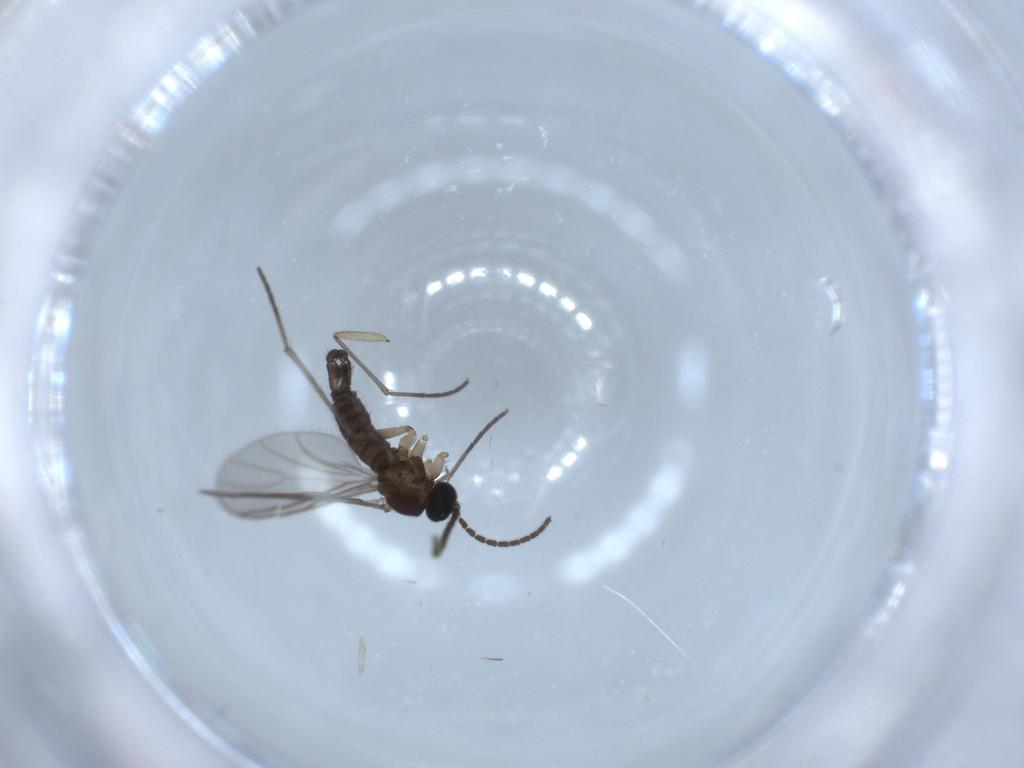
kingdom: Animalia
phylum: Arthropoda
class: Insecta
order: Diptera
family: Sciaridae
